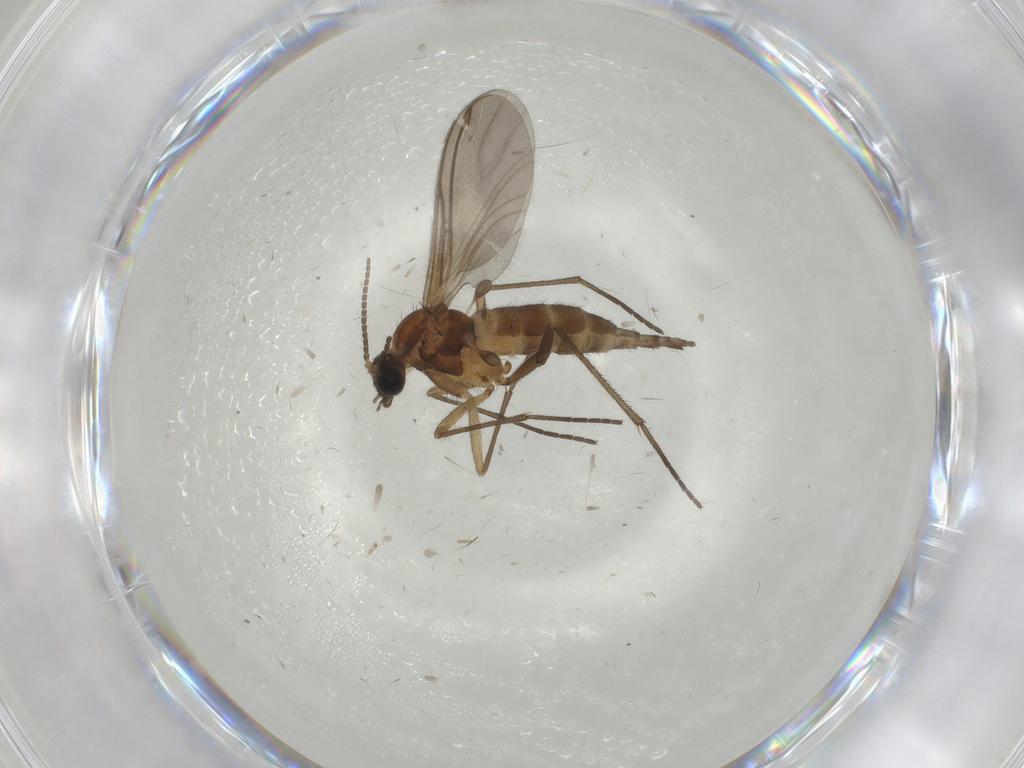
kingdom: Animalia
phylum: Arthropoda
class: Insecta
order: Diptera
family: Sciaridae
